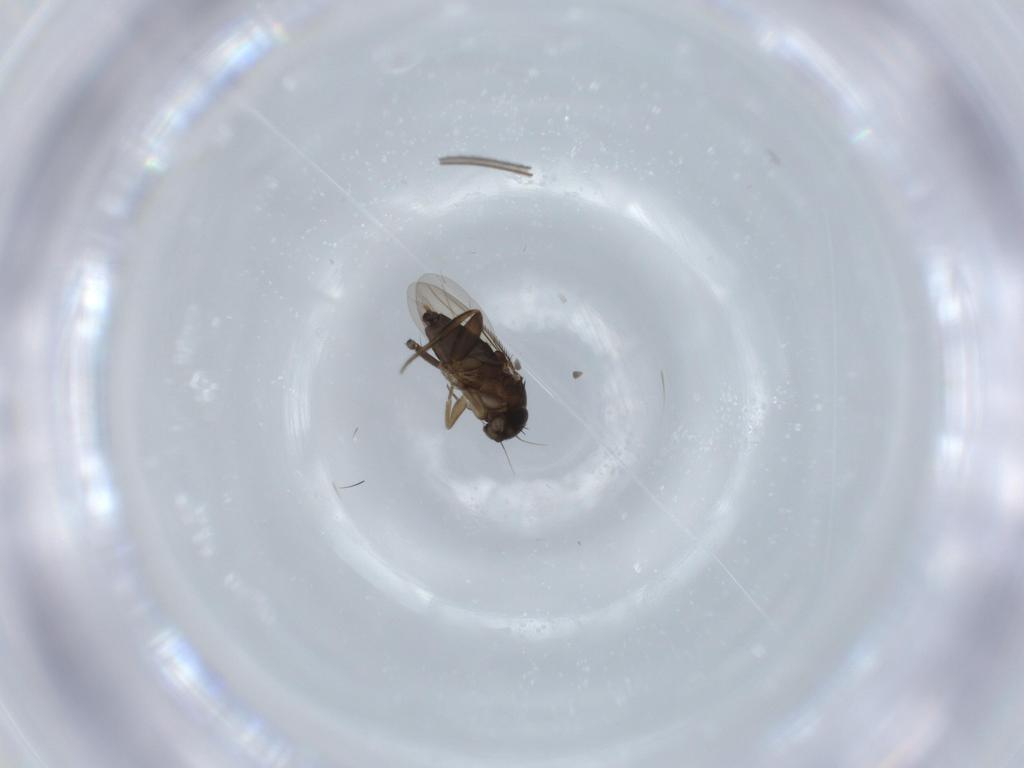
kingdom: Animalia
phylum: Arthropoda
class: Insecta
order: Diptera
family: Phoridae
